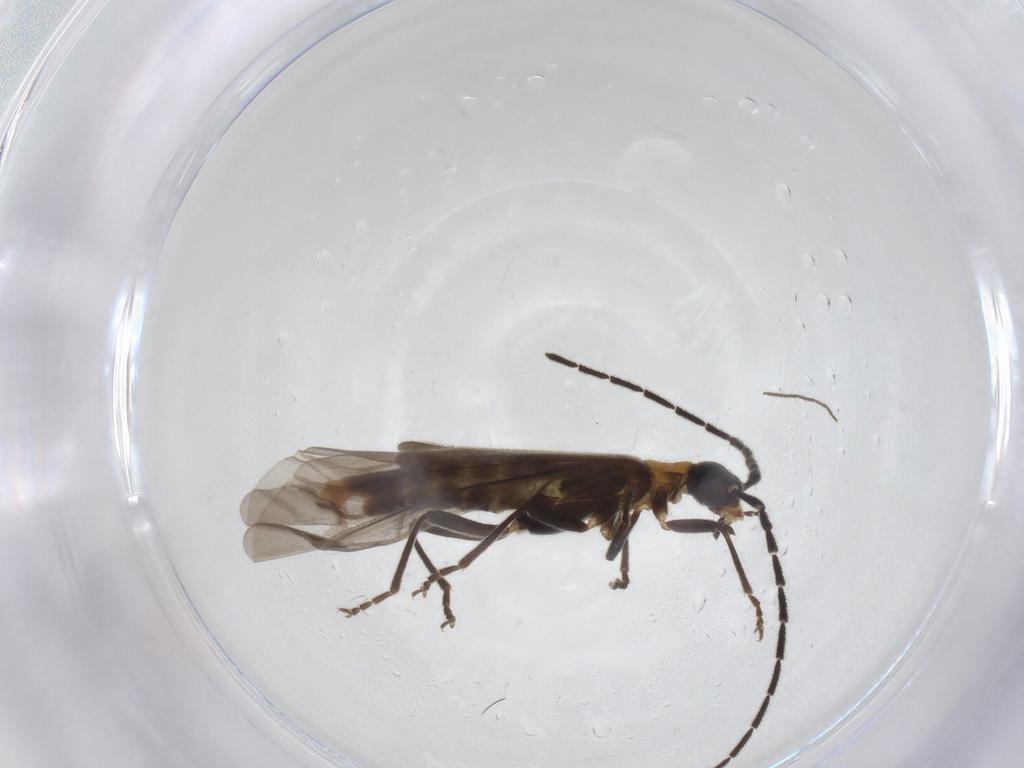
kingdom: Animalia
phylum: Arthropoda
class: Insecta
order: Coleoptera
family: Cantharidae
